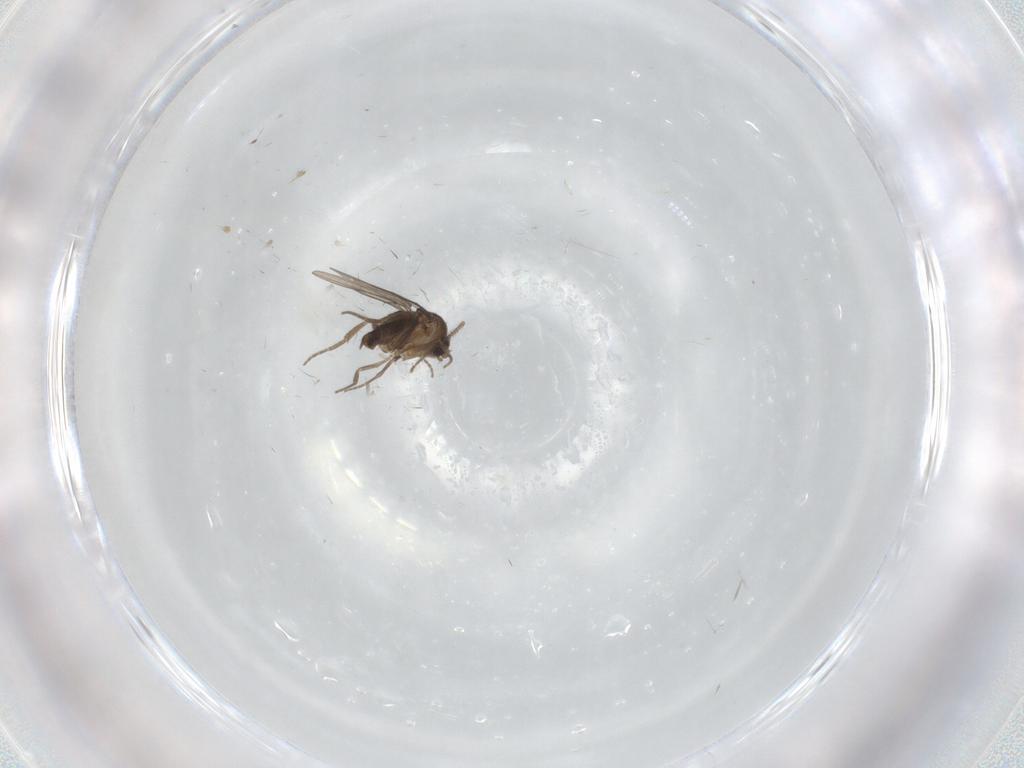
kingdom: Animalia
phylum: Arthropoda
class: Insecta
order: Diptera
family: Phoridae
